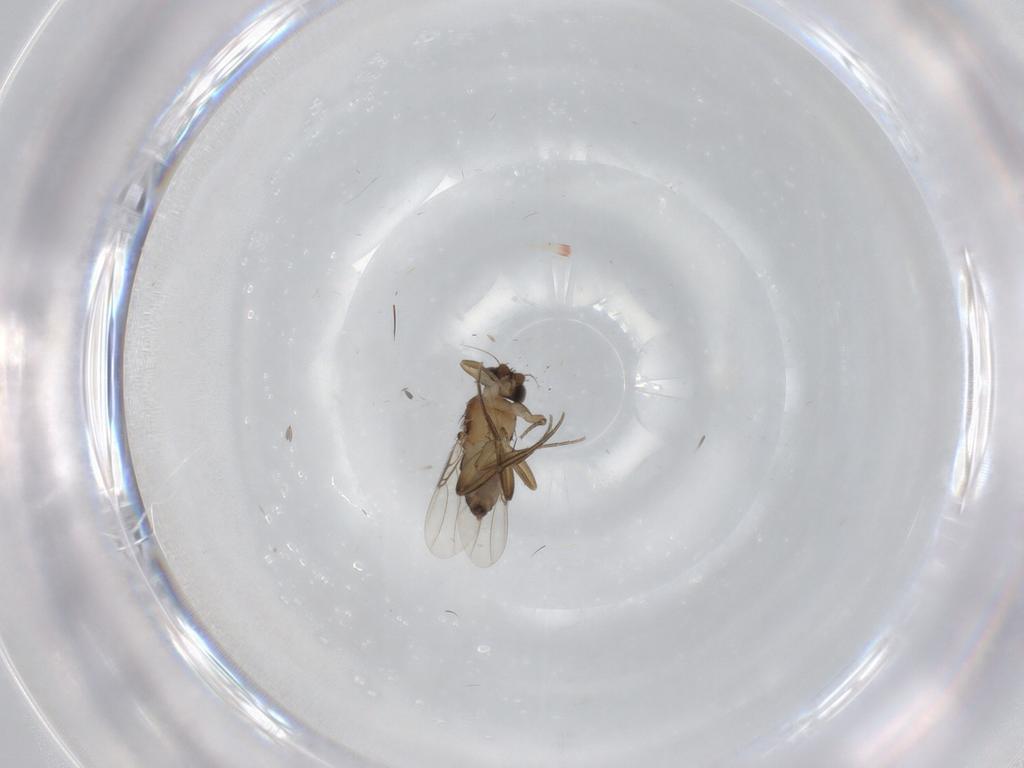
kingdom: Animalia
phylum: Arthropoda
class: Insecta
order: Diptera
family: Phoridae
